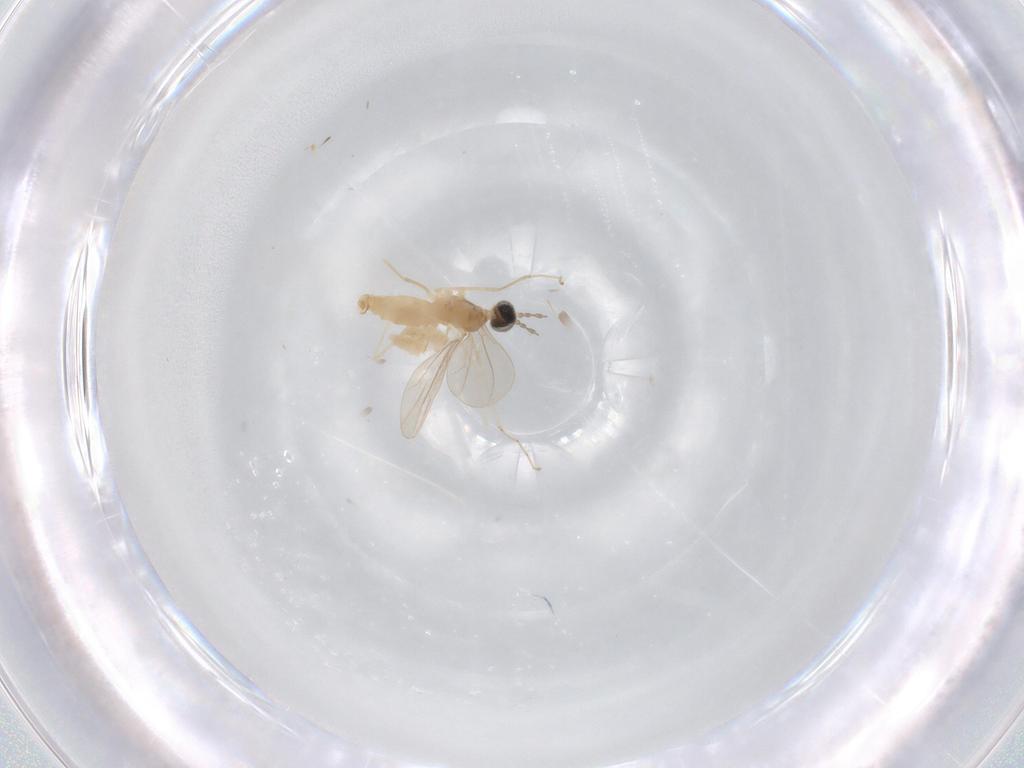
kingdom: Animalia
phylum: Arthropoda
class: Insecta
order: Diptera
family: Cecidomyiidae
